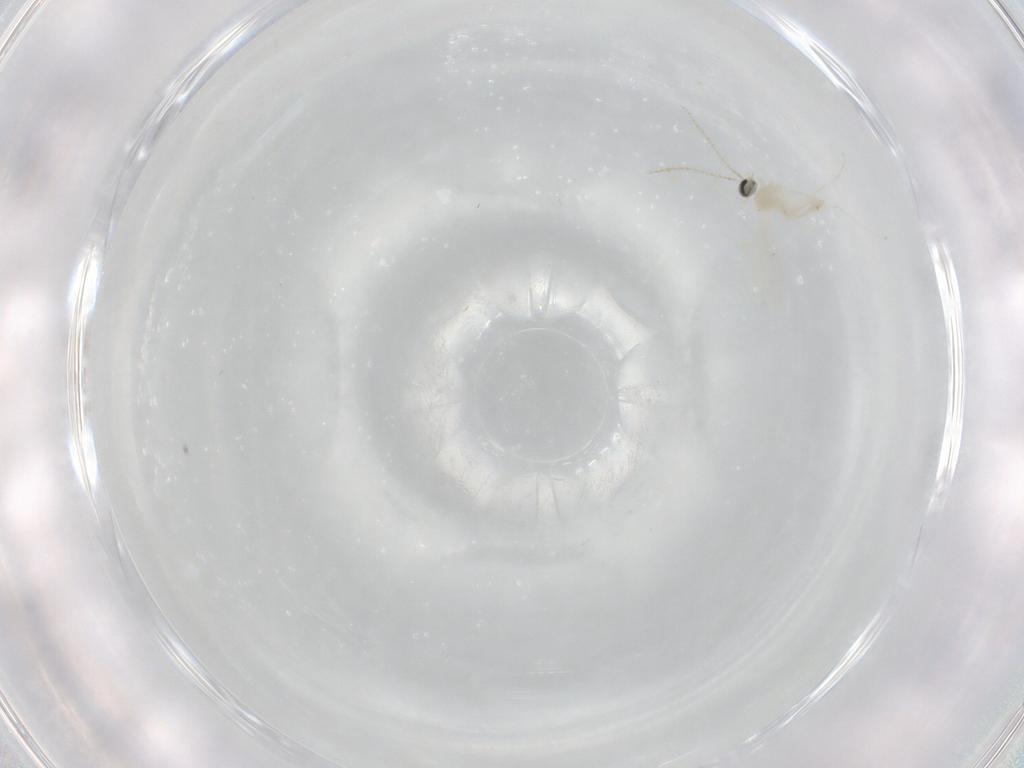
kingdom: Animalia
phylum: Arthropoda
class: Insecta
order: Diptera
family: Cecidomyiidae
